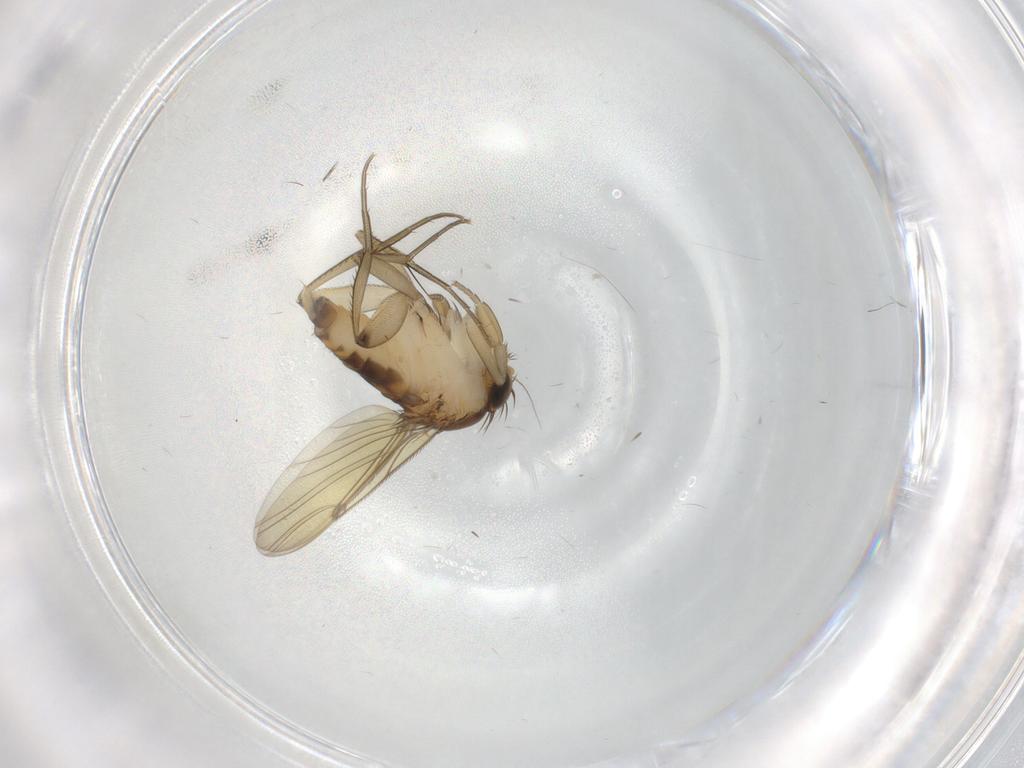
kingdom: Animalia
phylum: Arthropoda
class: Insecta
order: Diptera
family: Phoridae
